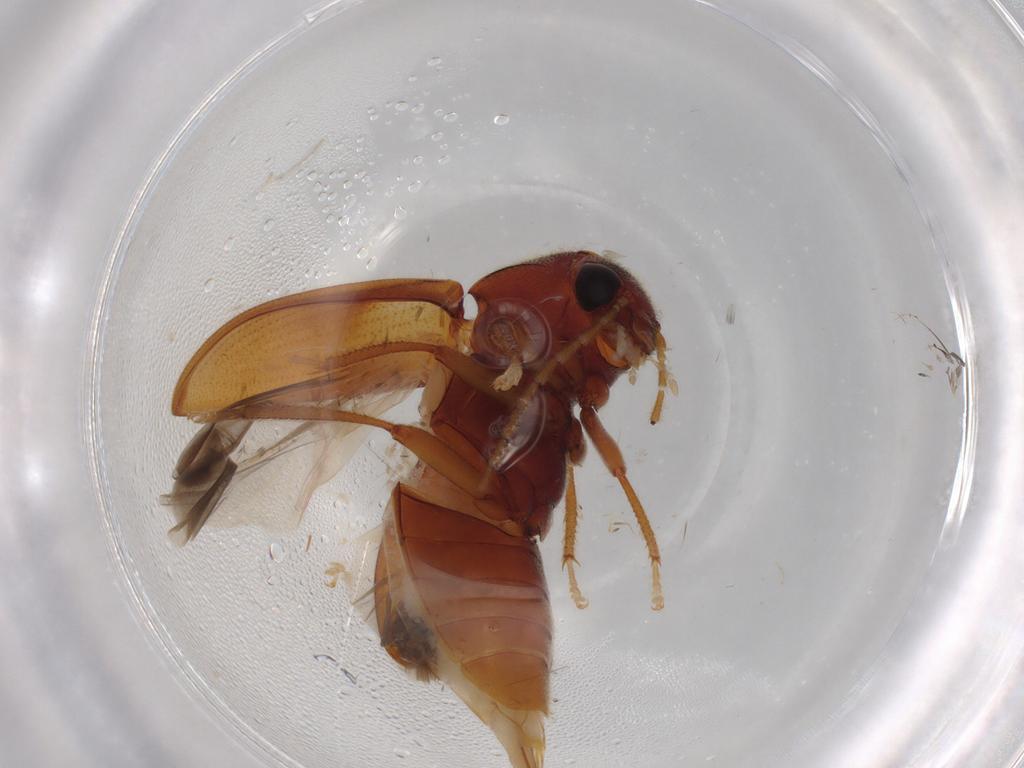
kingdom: Animalia
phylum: Arthropoda
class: Insecta
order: Coleoptera
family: Ptilodactylidae
